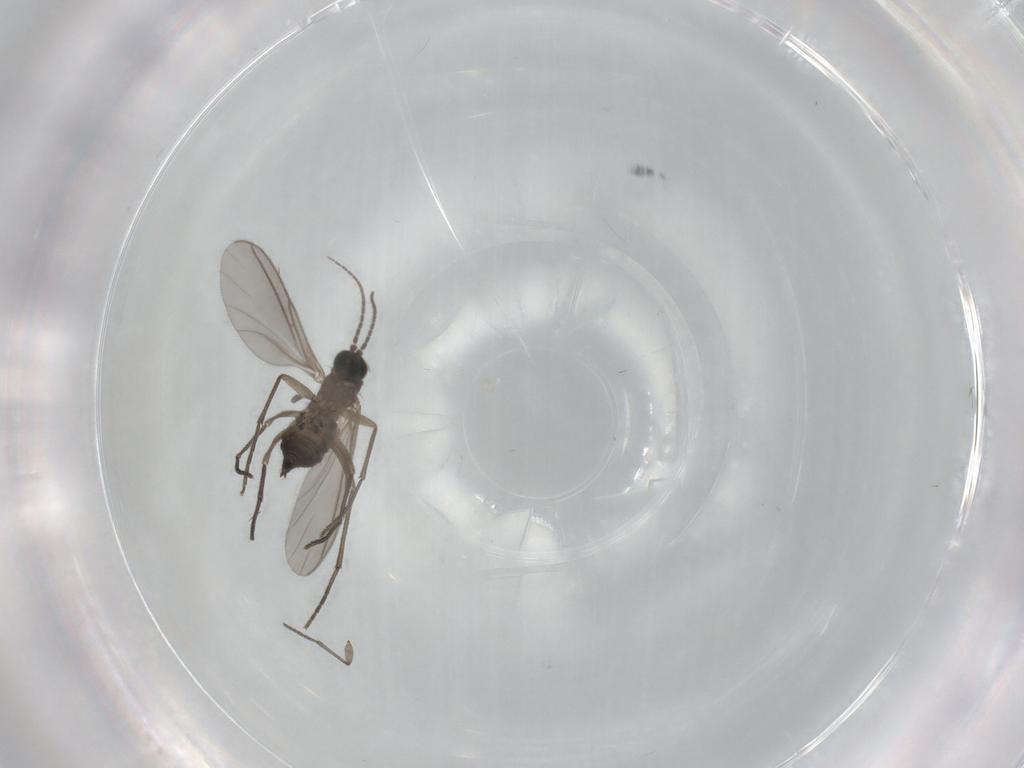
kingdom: Animalia
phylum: Arthropoda
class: Insecta
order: Diptera
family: Sciaridae
